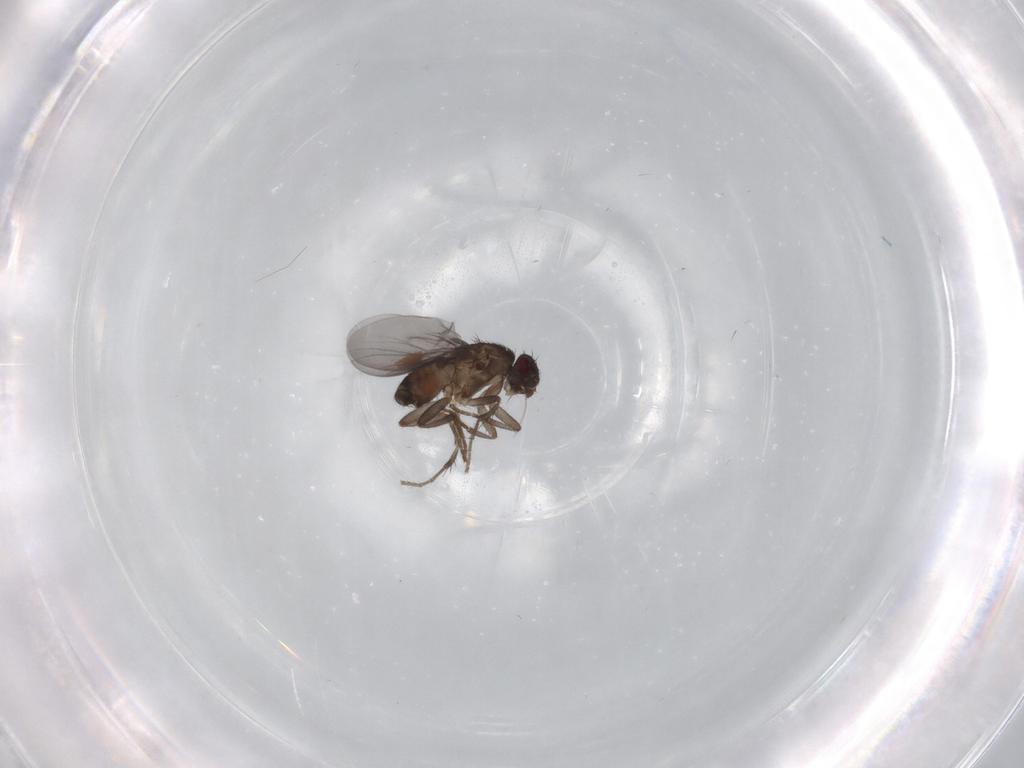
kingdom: Animalia
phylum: Arthropoda
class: Insecta
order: Diptera
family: Sphaeroceridae
